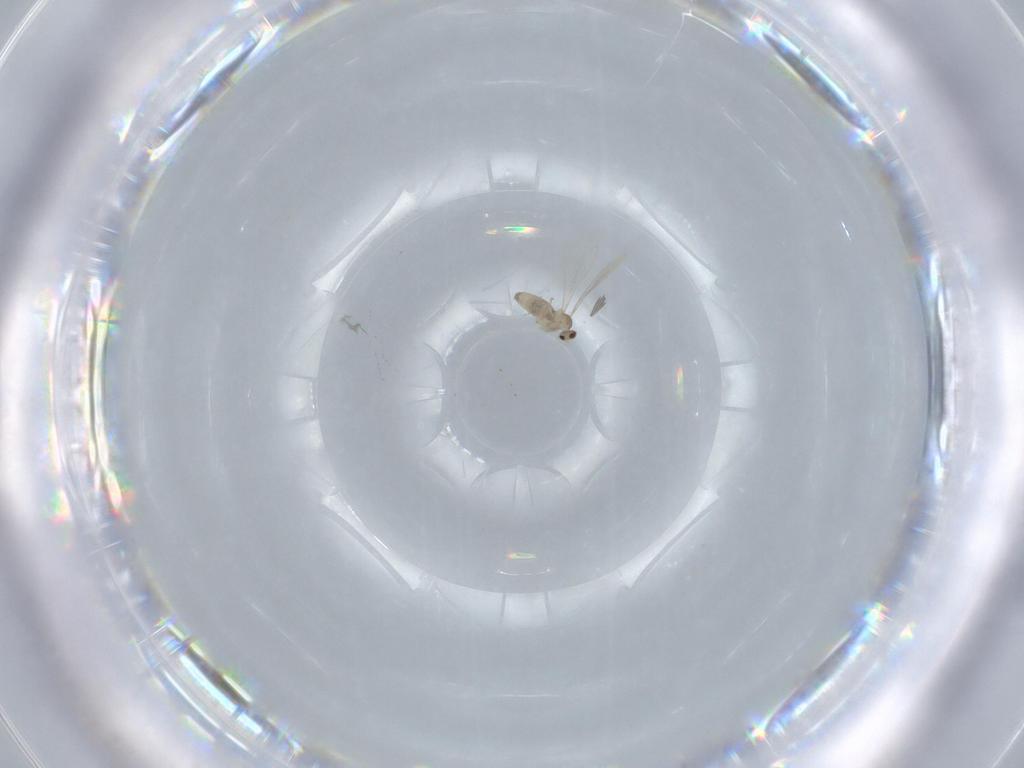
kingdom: Animalia
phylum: Arthropoda
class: Insecta
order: Diptera
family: Cecidomyiidae
